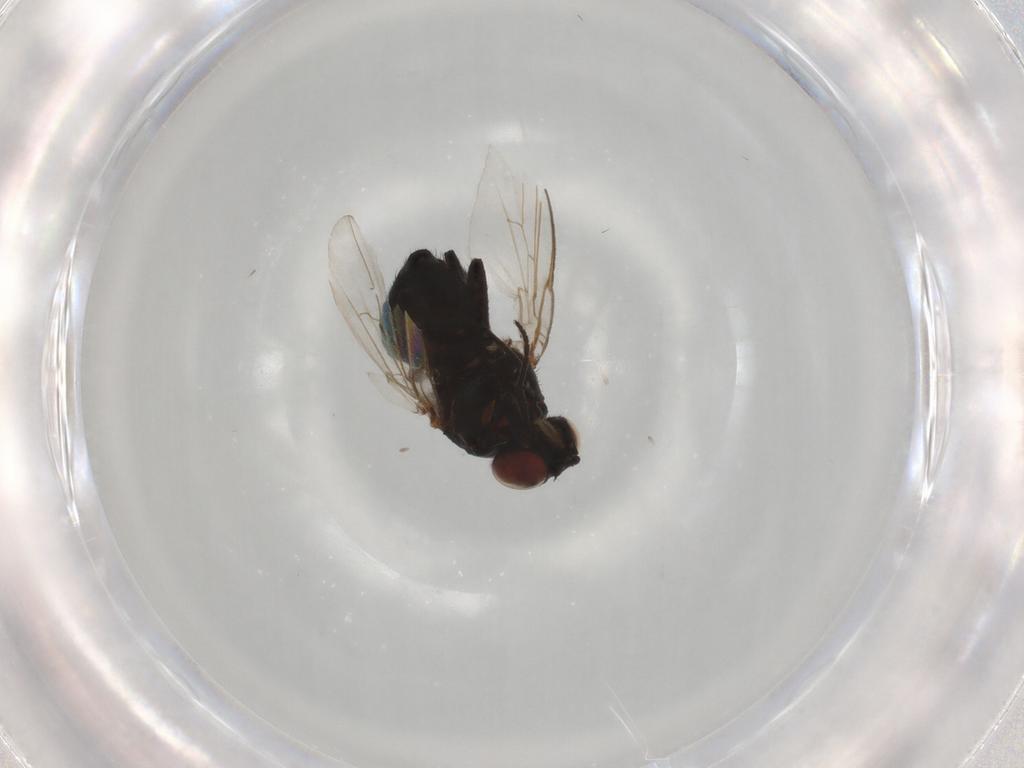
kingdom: Animalia
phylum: Arthropoda
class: Insecta
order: Diptera
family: Agromyzidae
